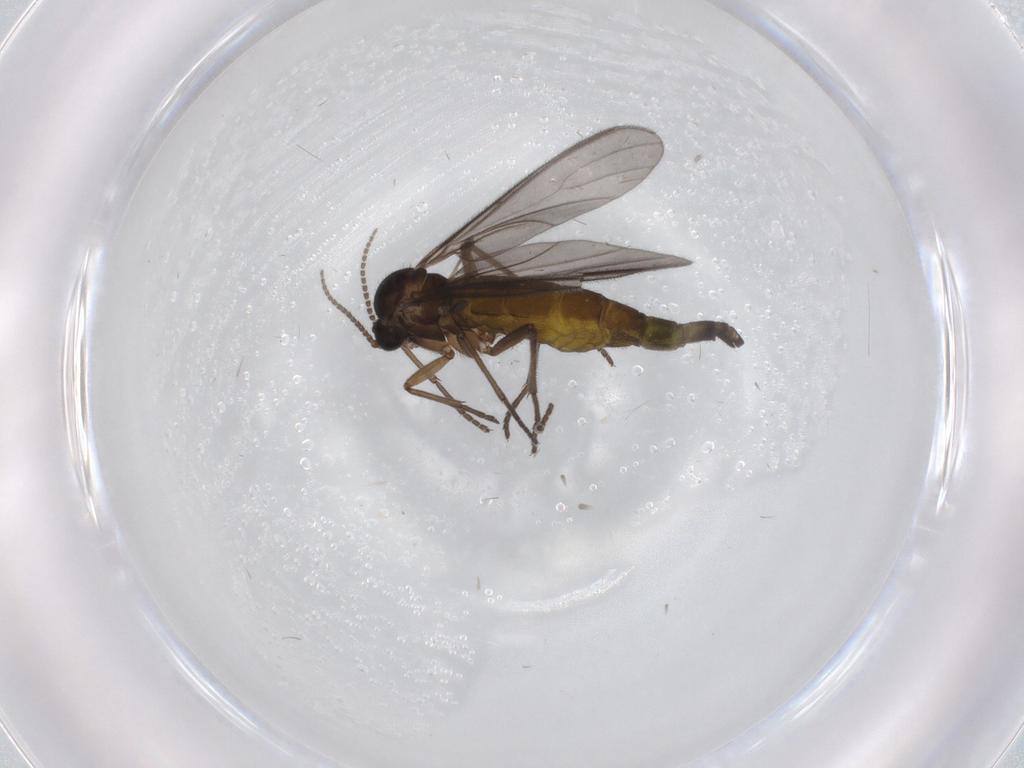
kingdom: Animalia
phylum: Arthropoda
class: Insecta
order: Diptera
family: Sciaridae
